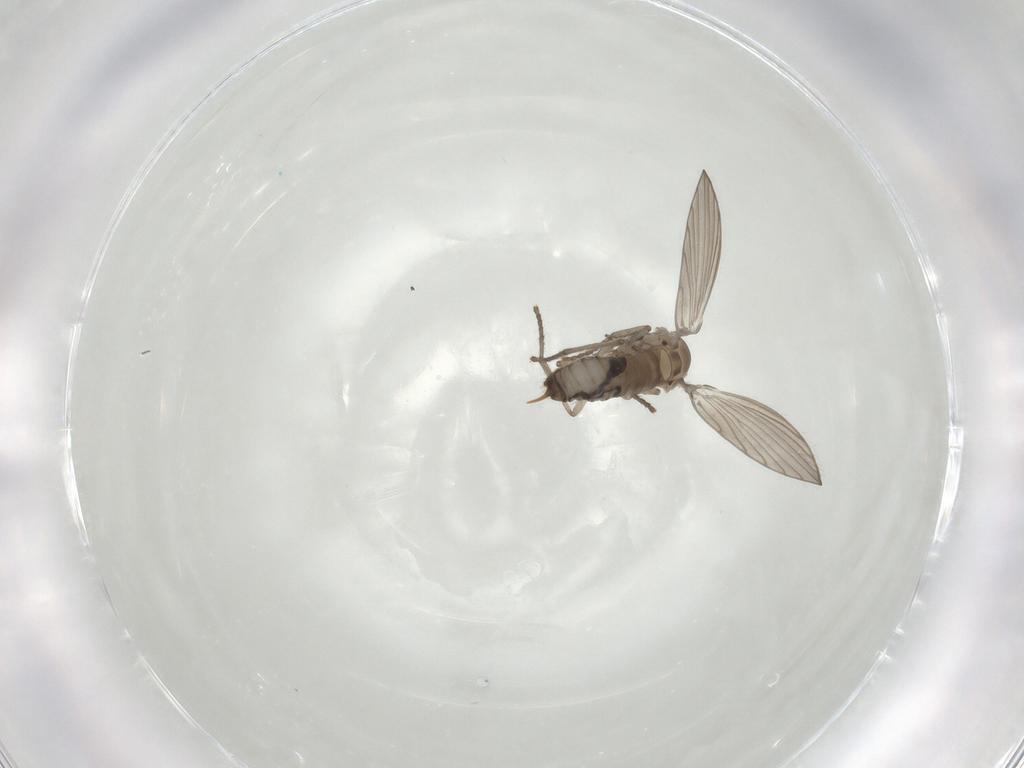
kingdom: Animalia
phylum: Arthropoda
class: Insecta
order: Diptera
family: Psychodidae
